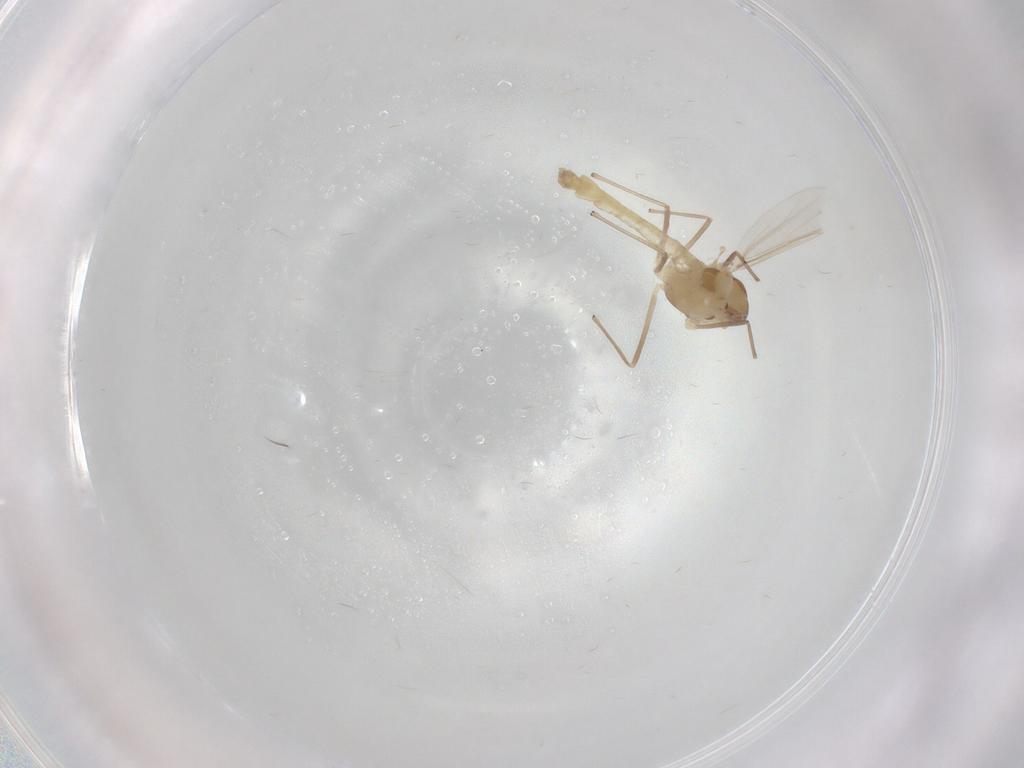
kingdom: Animalia
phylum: Arthropoda
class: Insecta
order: Diptera
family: Chironomidae
